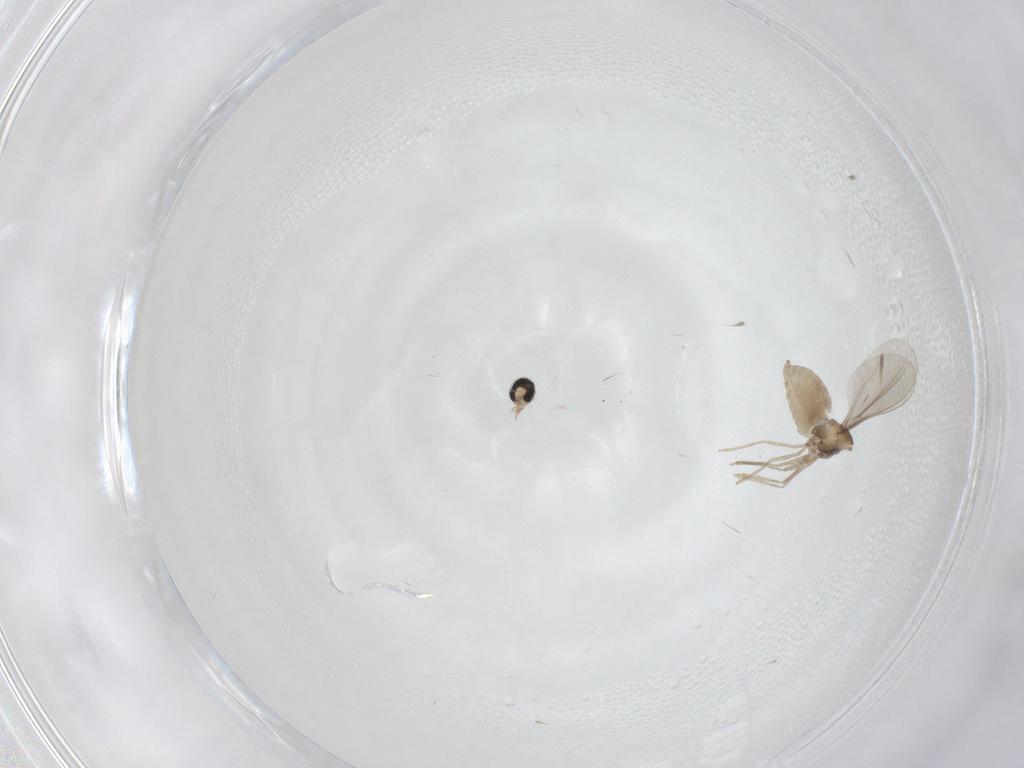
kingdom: Animalia
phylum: Arthropoda
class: Insecta
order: Diptera
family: Cecidomyiidae
